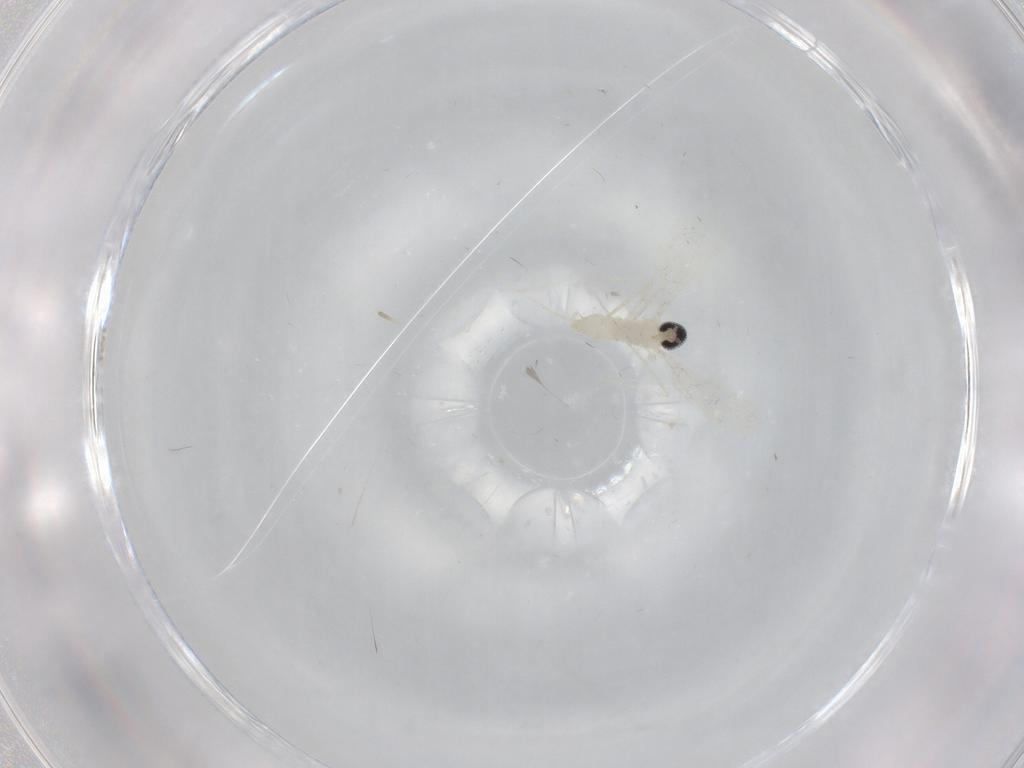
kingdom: Animalia
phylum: Arthropoda
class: Insecta
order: Diptera
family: Cecidomyiidae
